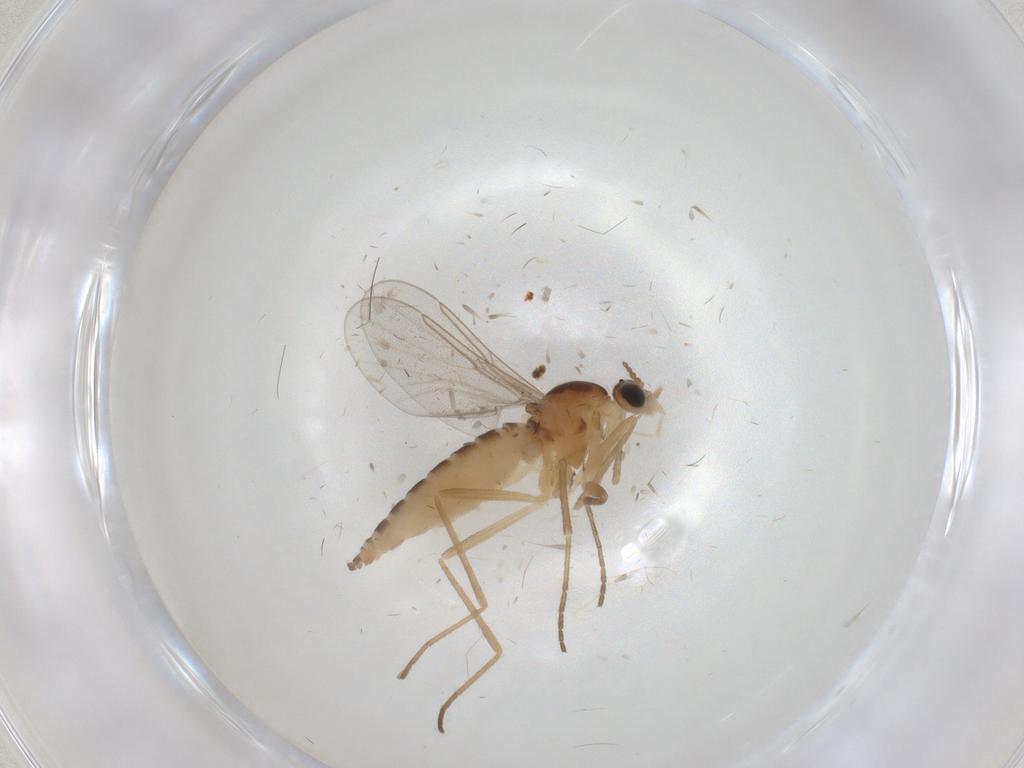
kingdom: Animalia
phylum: Arthropoda
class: Insecta
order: Diptera
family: Cecidomyiidae
